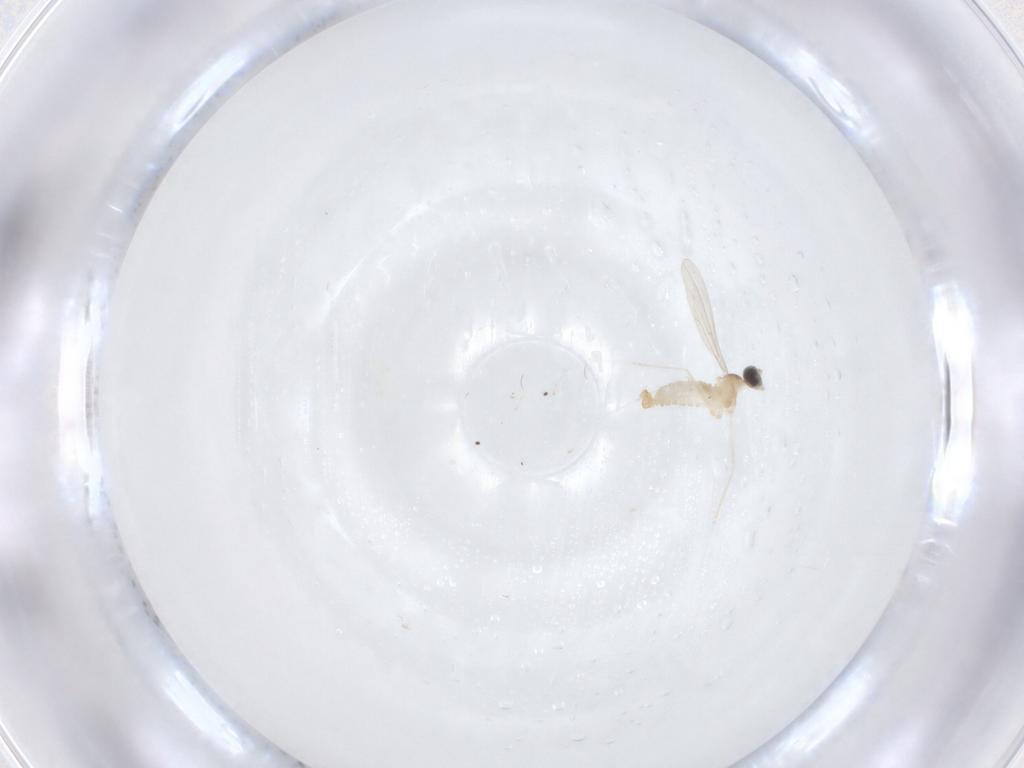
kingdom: Animalia
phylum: Arthropoda
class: Insecta
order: Diptera
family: Cecidomyiidae
